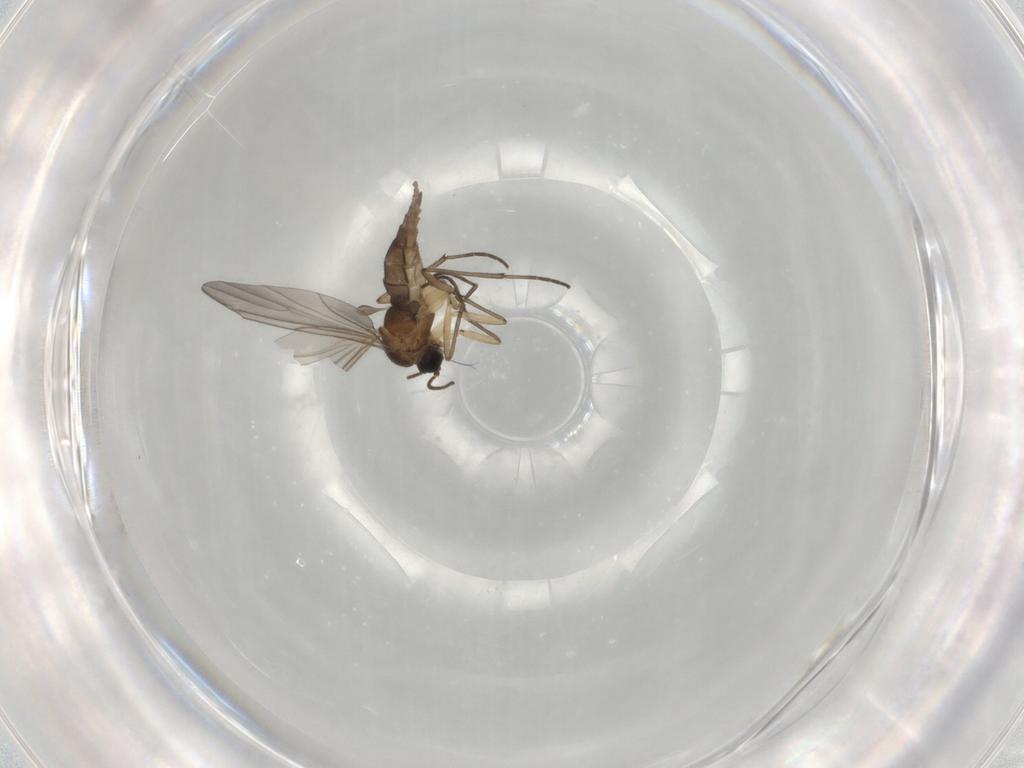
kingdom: Animalia
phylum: Arthropoda
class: Insecta
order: Diptera
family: Sciaridae
